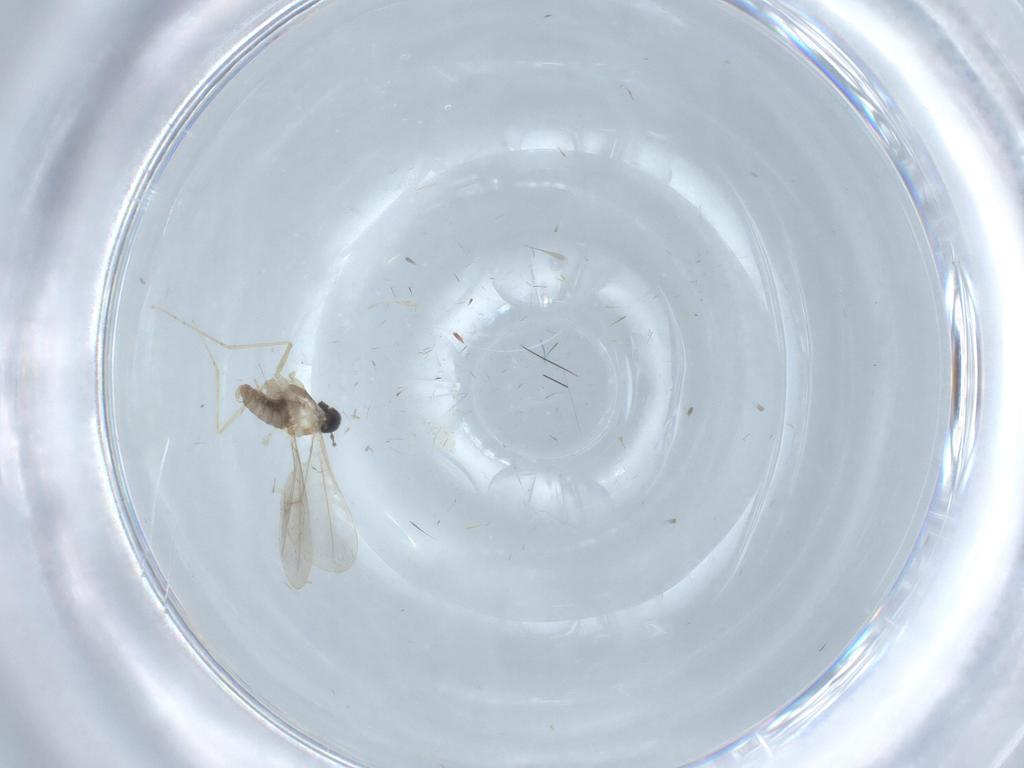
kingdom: Animalia
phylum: Arthropoda
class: Insecta
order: Diptera
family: Cecidomyiidae
